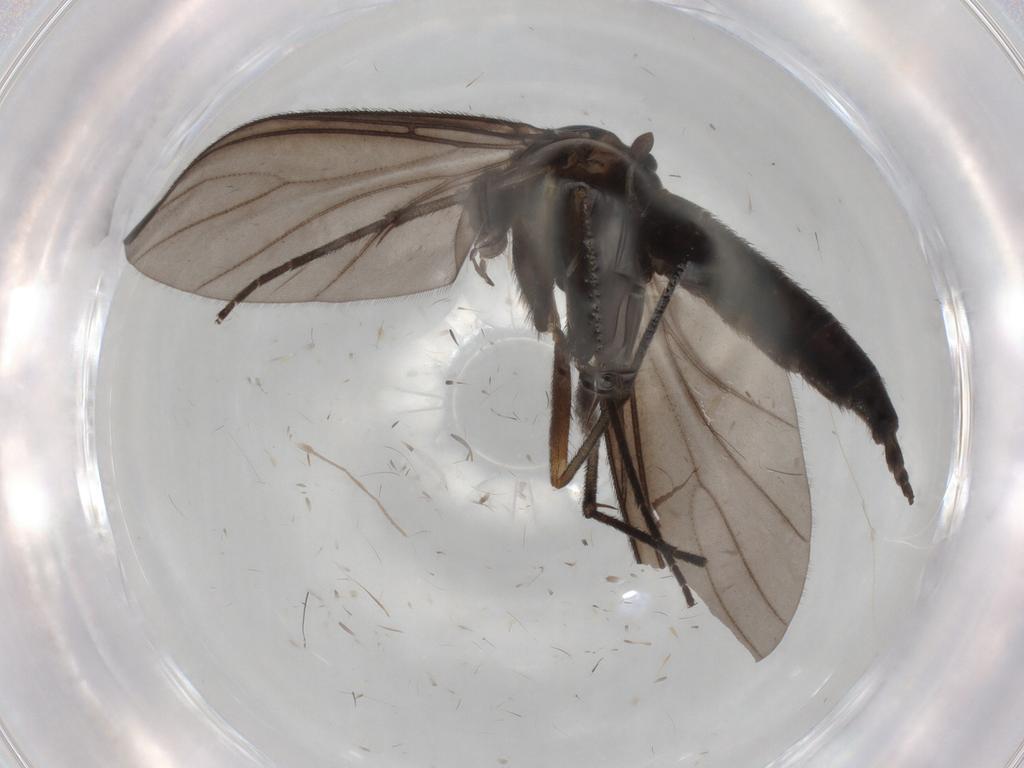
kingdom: Animalia
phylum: Arthropoda
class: Insecta
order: Diptera
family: Sciaridae
